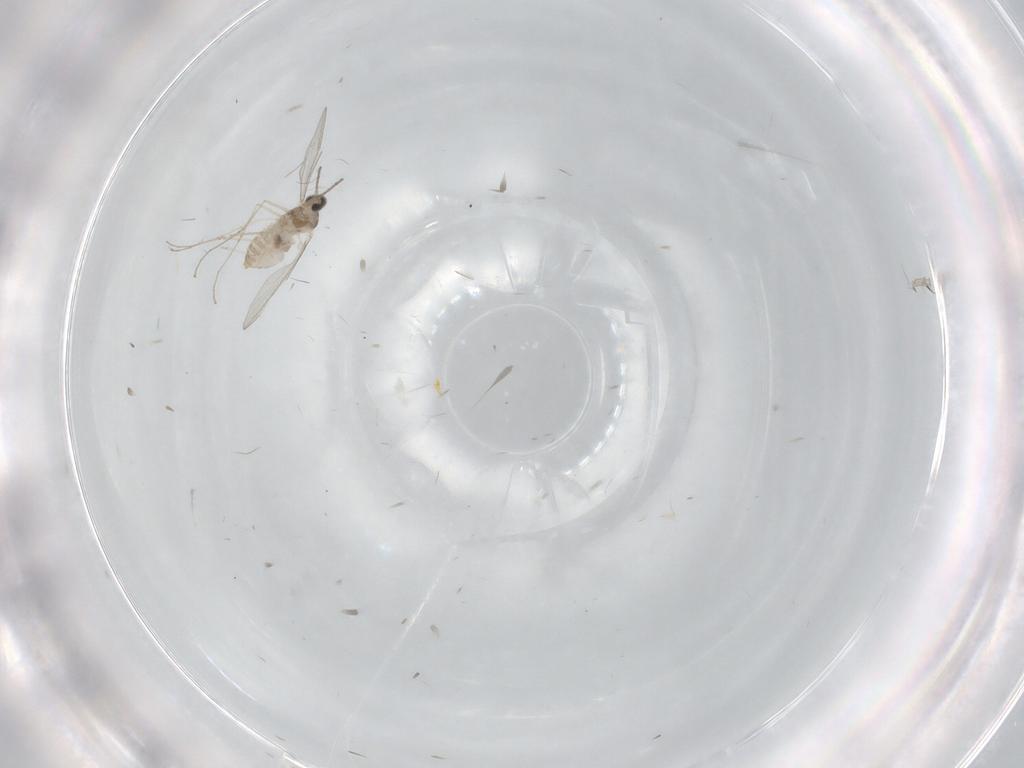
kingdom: Animalia
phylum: Arthropoda
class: Insecta
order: Diptera
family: Cecidomyiidae
